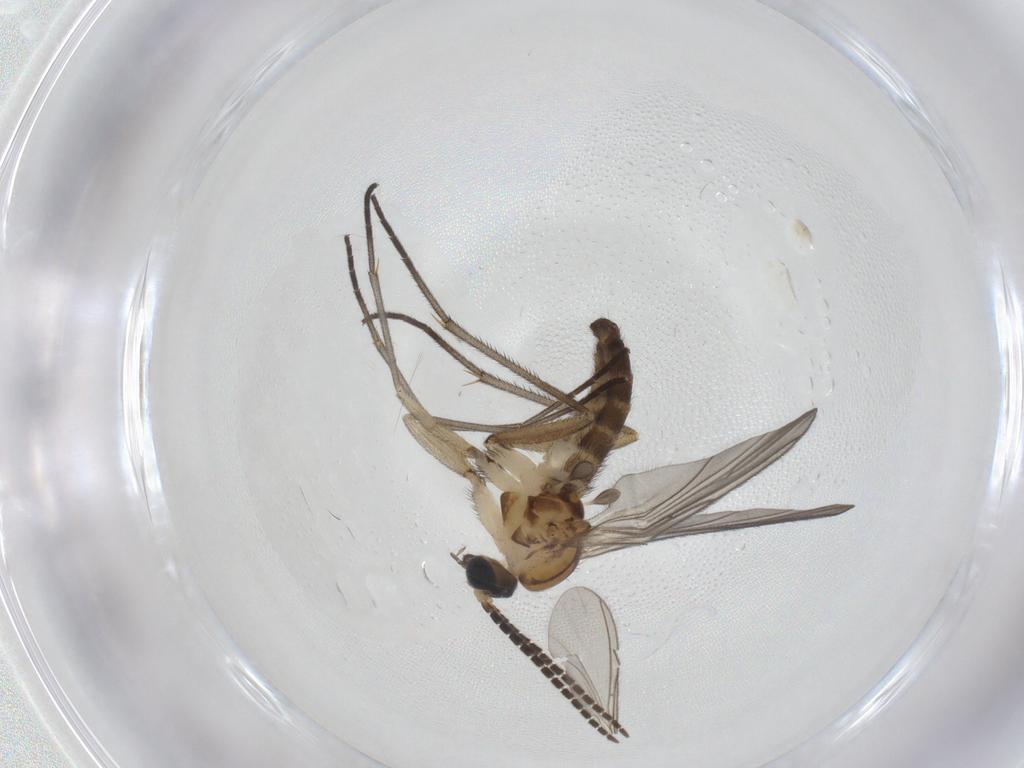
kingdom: Animalia
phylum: Arthropoda
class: Insecta
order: Diptera
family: Sciaridae
